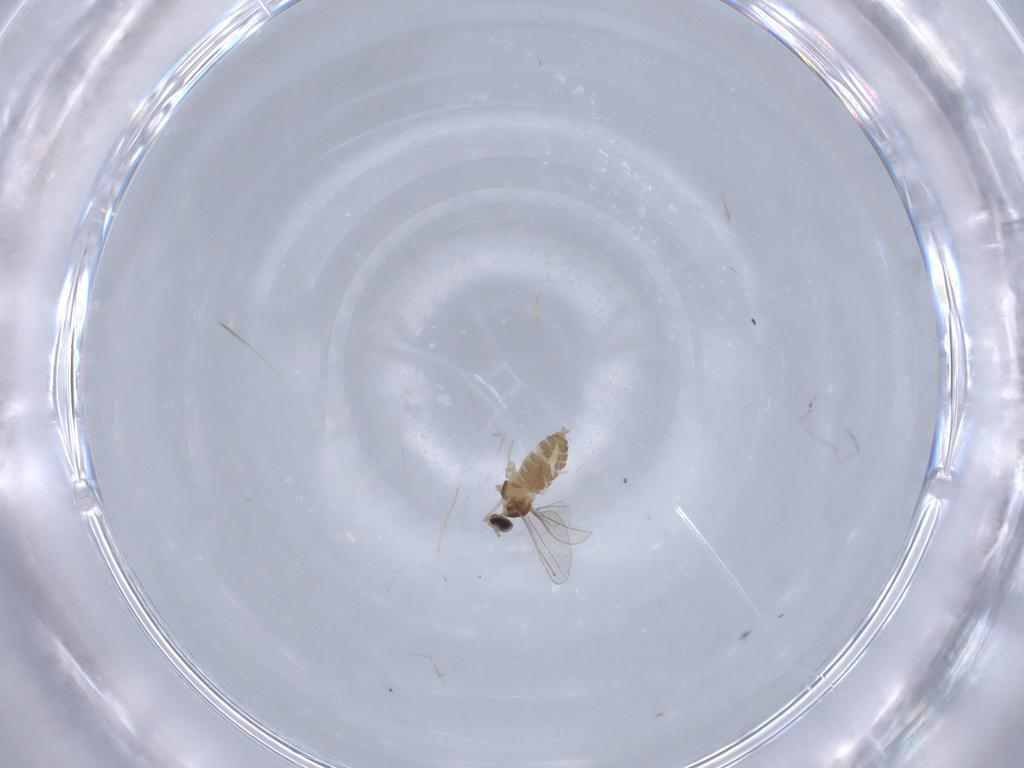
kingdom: Animalia
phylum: Arthropoda
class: Insecta
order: Diptera
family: Cecidomyiidae
